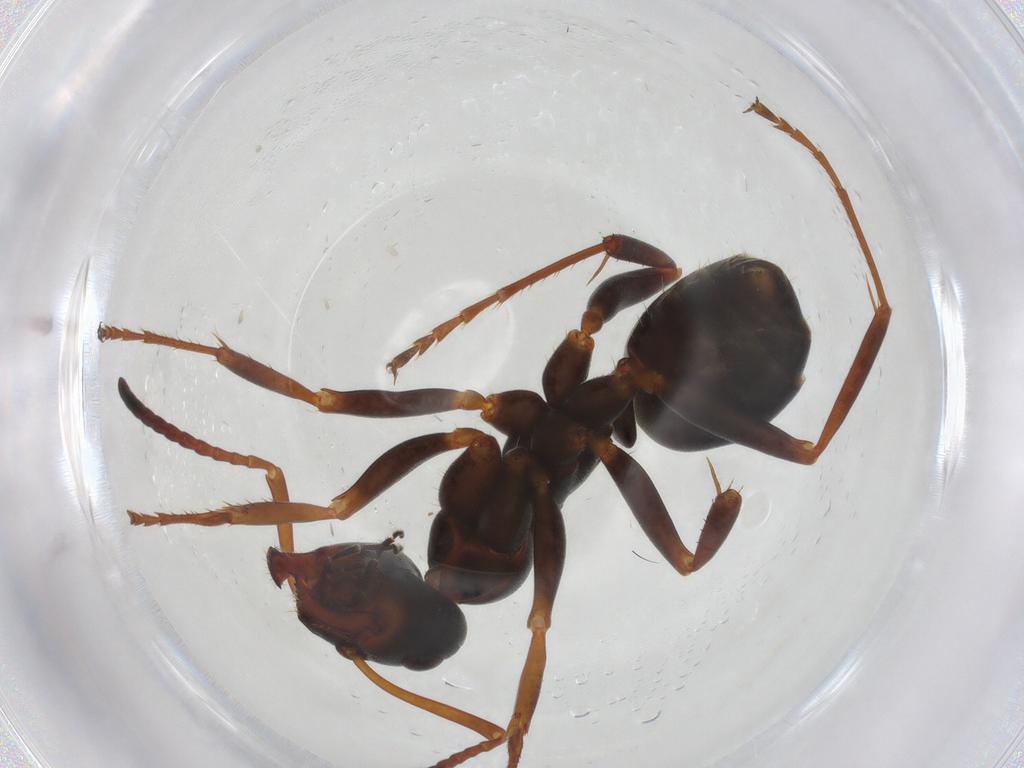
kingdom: Animalia
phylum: Arthropoda
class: Insecta
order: Hymenoptera
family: Formicidae
